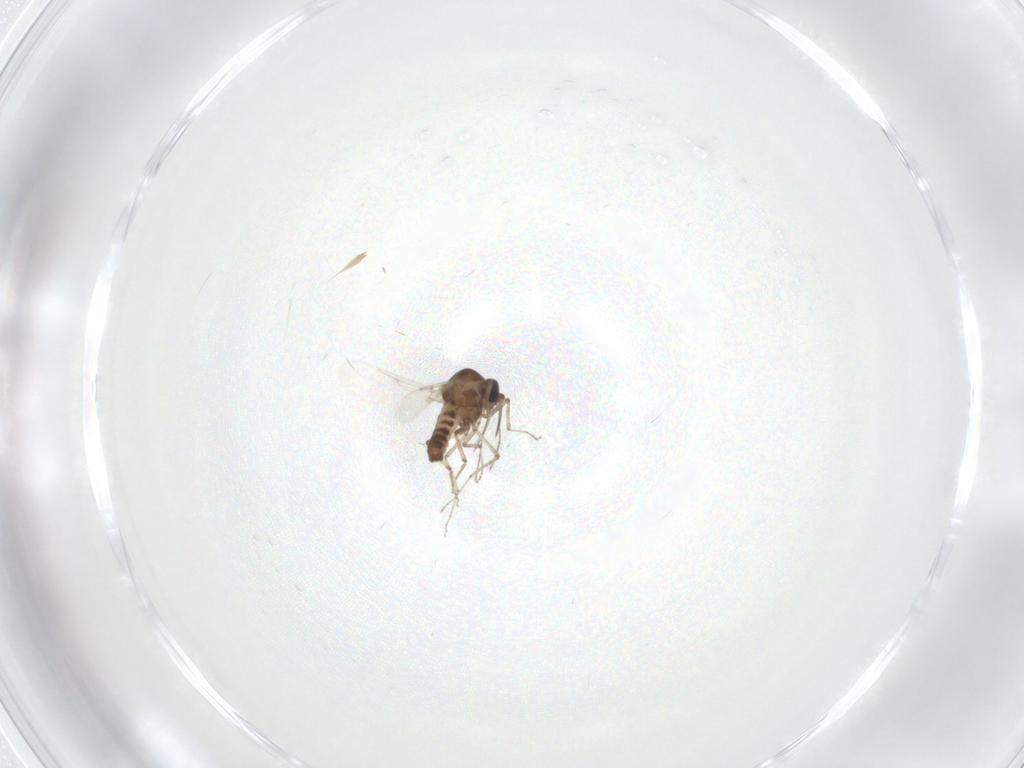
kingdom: Animalia
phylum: Arthropoda
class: Insecta
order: Diptera
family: Ceratopogonidae
